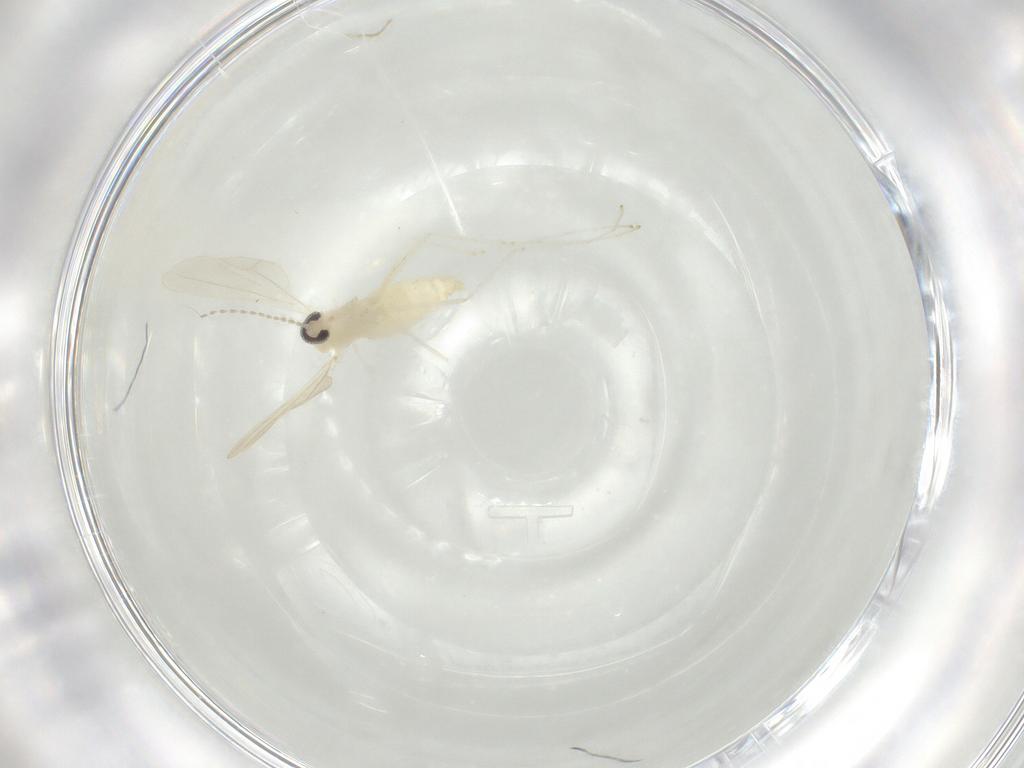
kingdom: Animalia
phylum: Arthropoda
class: Insecta
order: Diptera
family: Cecidomyiidae
